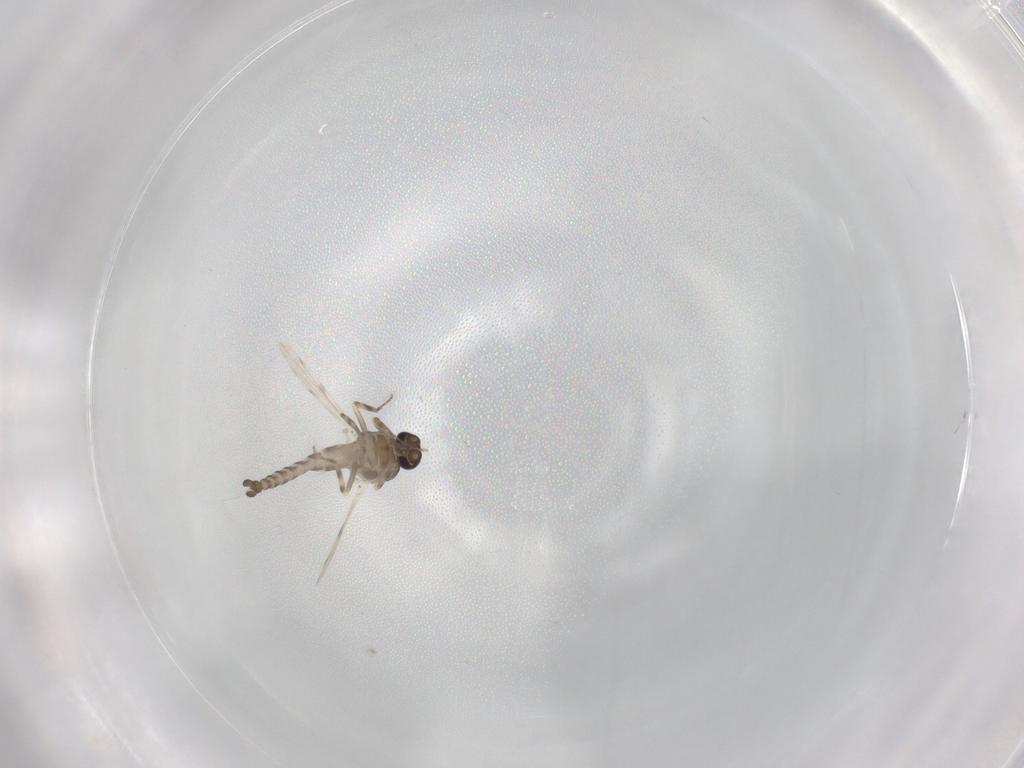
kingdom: Animalia
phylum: Arthropoda
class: Insecta
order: Diptera
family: Ceratopogonidae
